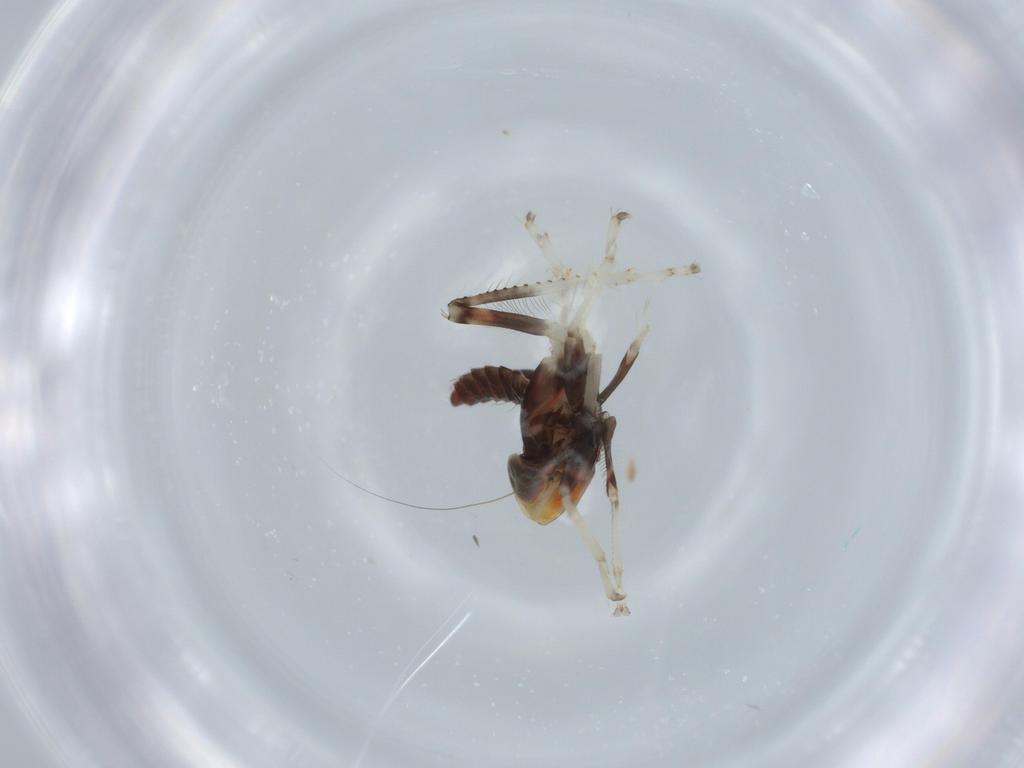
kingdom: Animalia
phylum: Arthropoda
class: Insecta
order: Hemiptera
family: Cicadellidae
